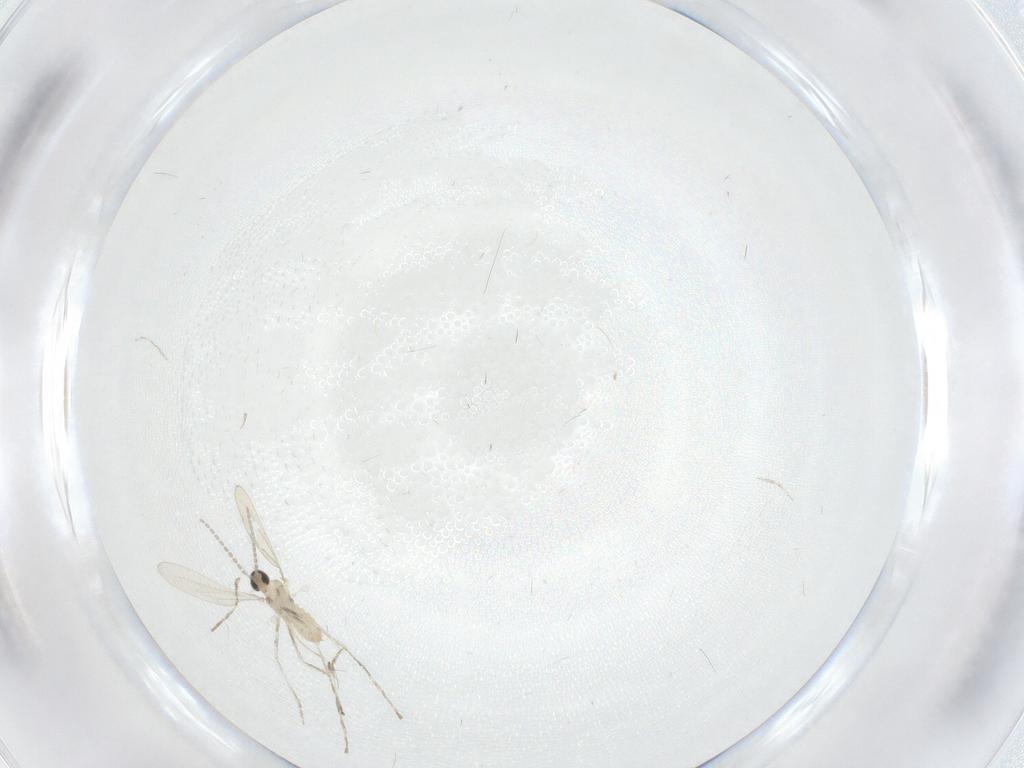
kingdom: Animalia
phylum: Arthropoda
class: Insecta
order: Diptera
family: Cecidomyiidae
